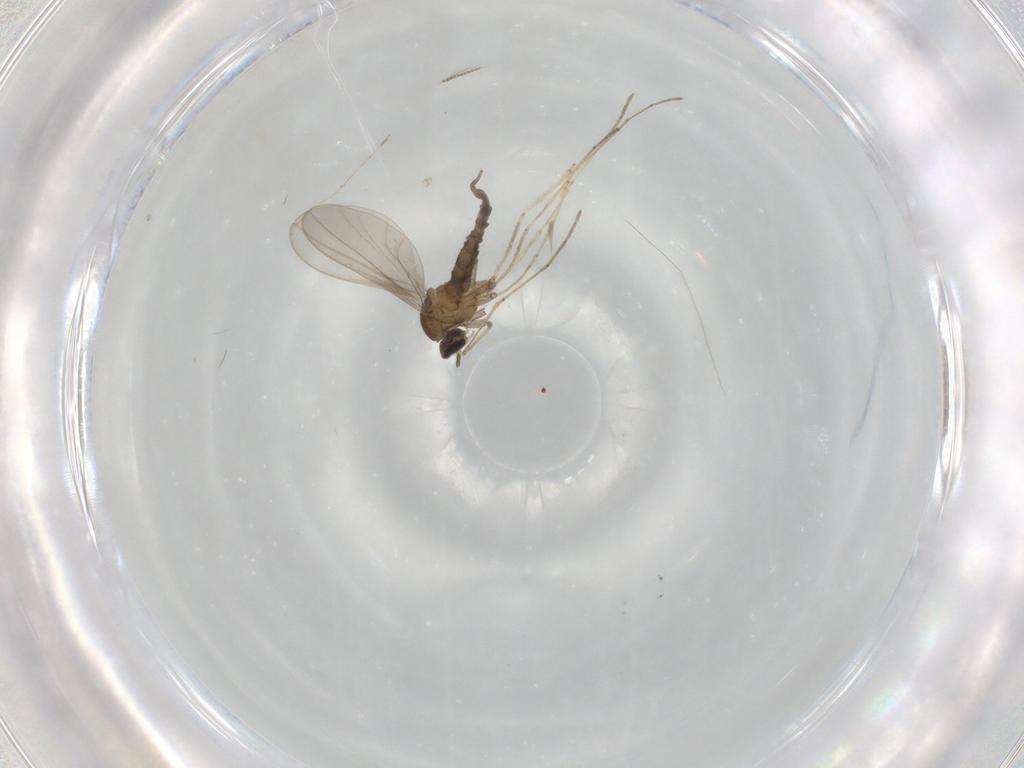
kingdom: Animalia
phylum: Arthropoda
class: Insecta
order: Diptera
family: Cecidomyiidae
